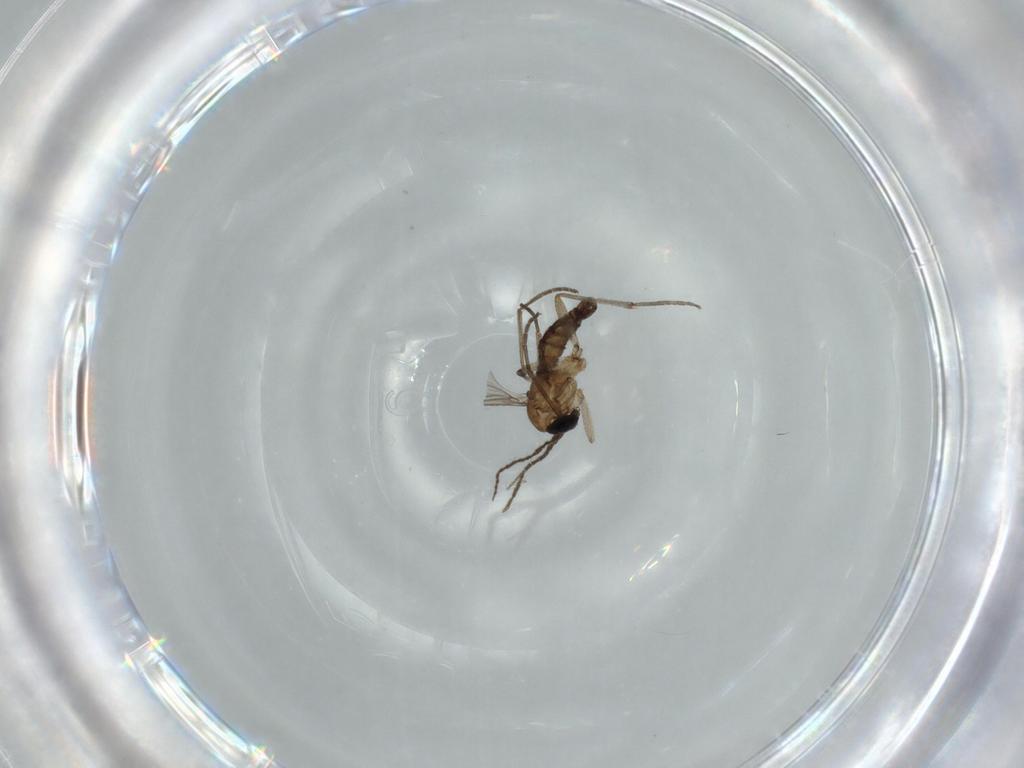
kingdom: Animalia
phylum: Arthropoda
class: Insecta
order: Diptera
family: Sciaridae
